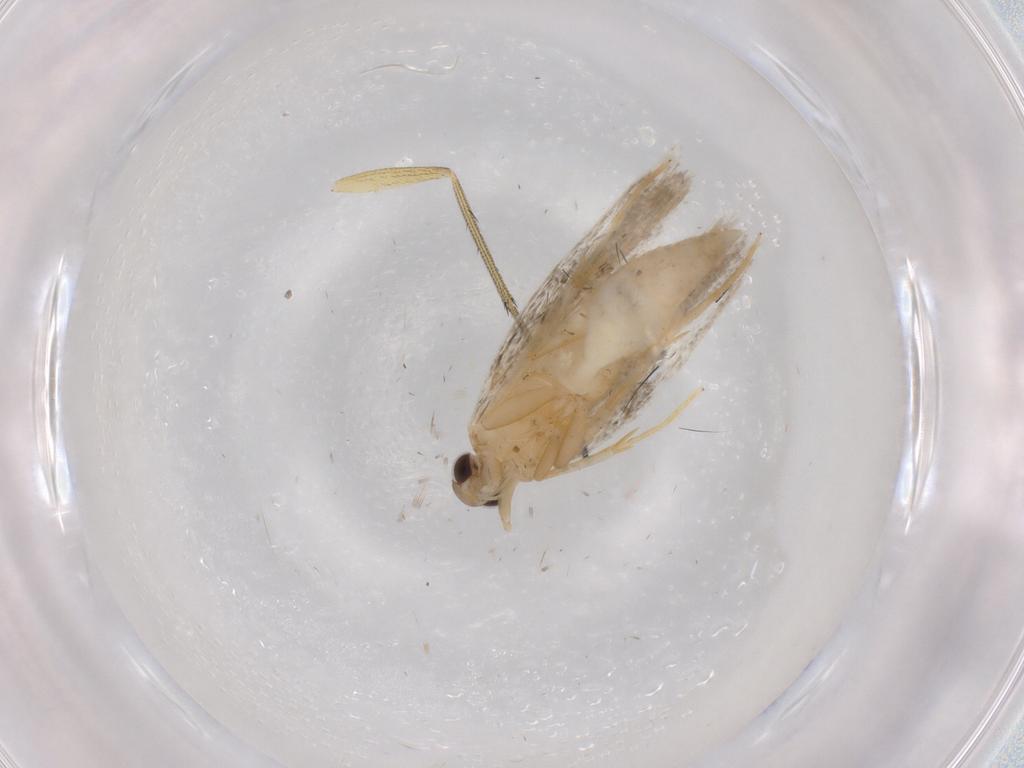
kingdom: Animalia
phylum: Arthropoda
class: Insecta
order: Lepidoptera
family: Autostichidae
